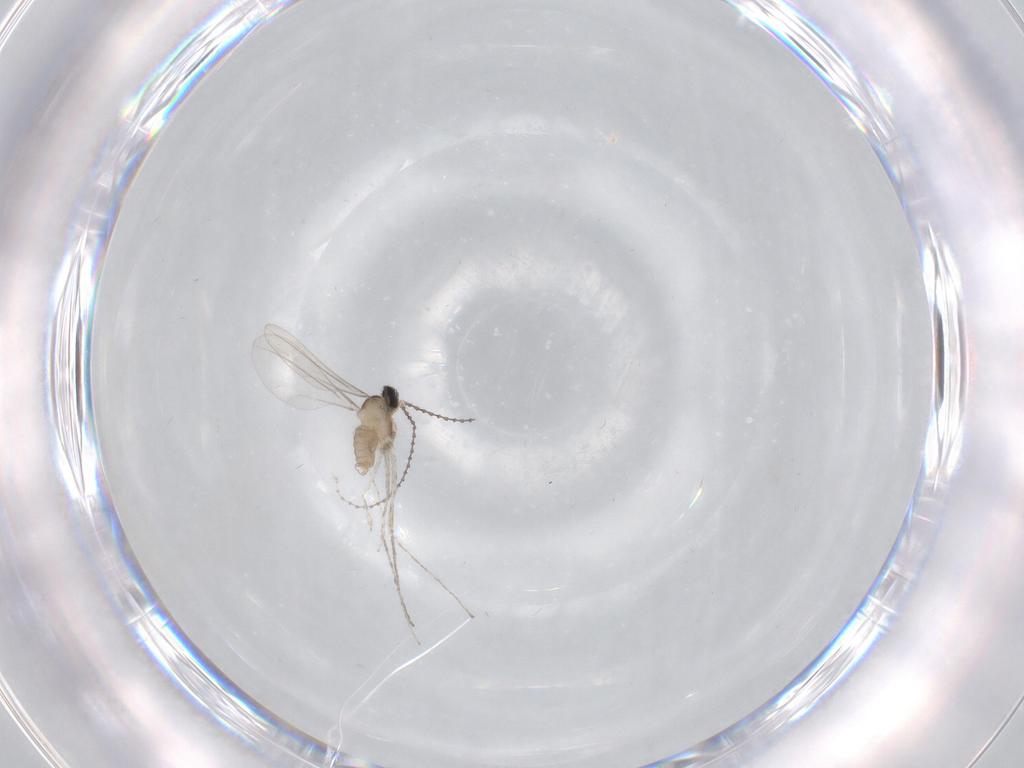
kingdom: Animalia
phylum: Arthropoda
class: Insecta
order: Diptera
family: Cecidomyiidae
